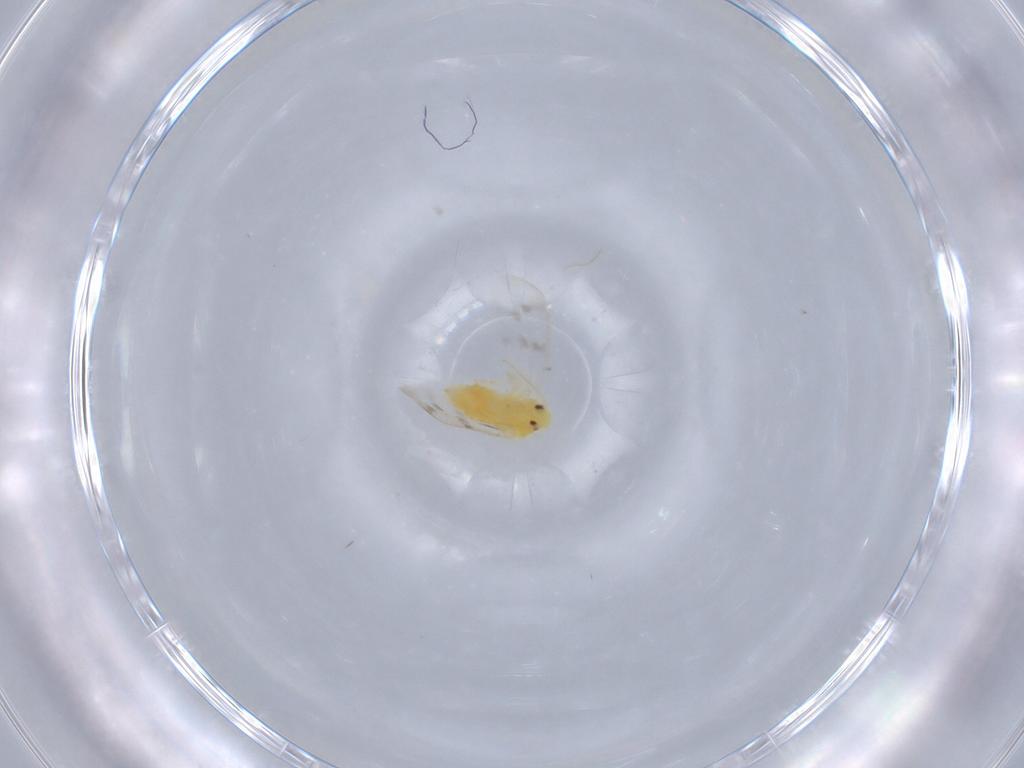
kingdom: Animalia
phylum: Arthropoda
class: Insecta
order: Hemiptera
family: Aleyrodidae
